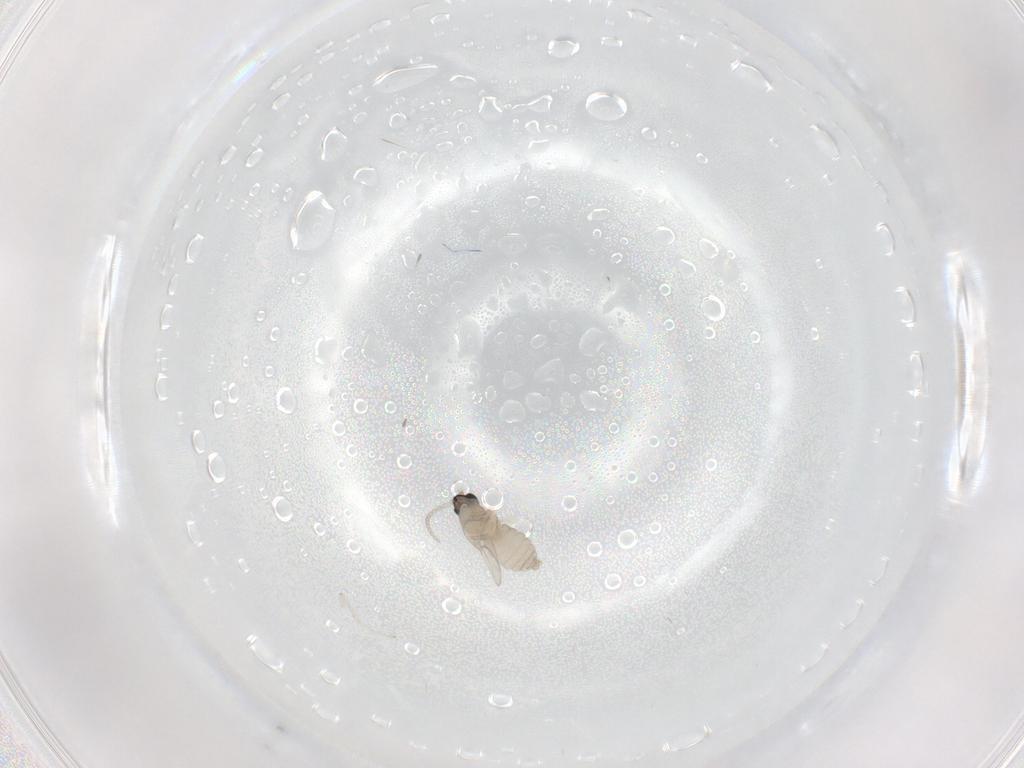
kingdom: Animalia
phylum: Arthropoda
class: Insecta
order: Diptera
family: Cecidomyiidae
